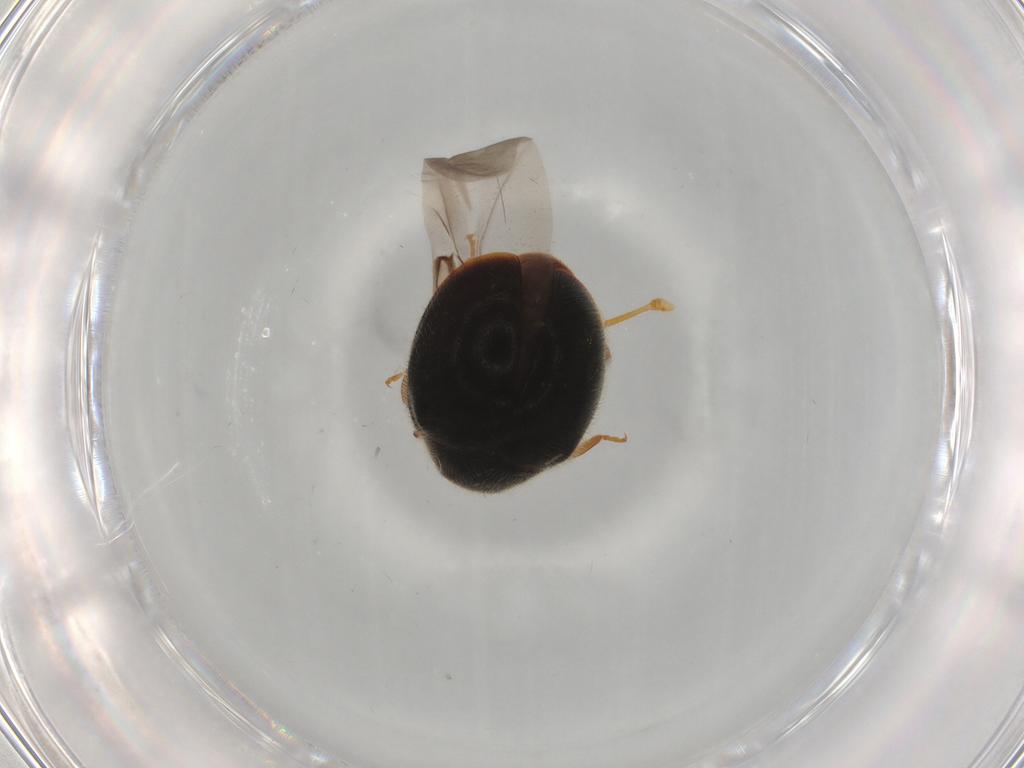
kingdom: Animalia
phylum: Arthropoda
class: Insecta
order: Coleoptera
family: Coccinellidae
